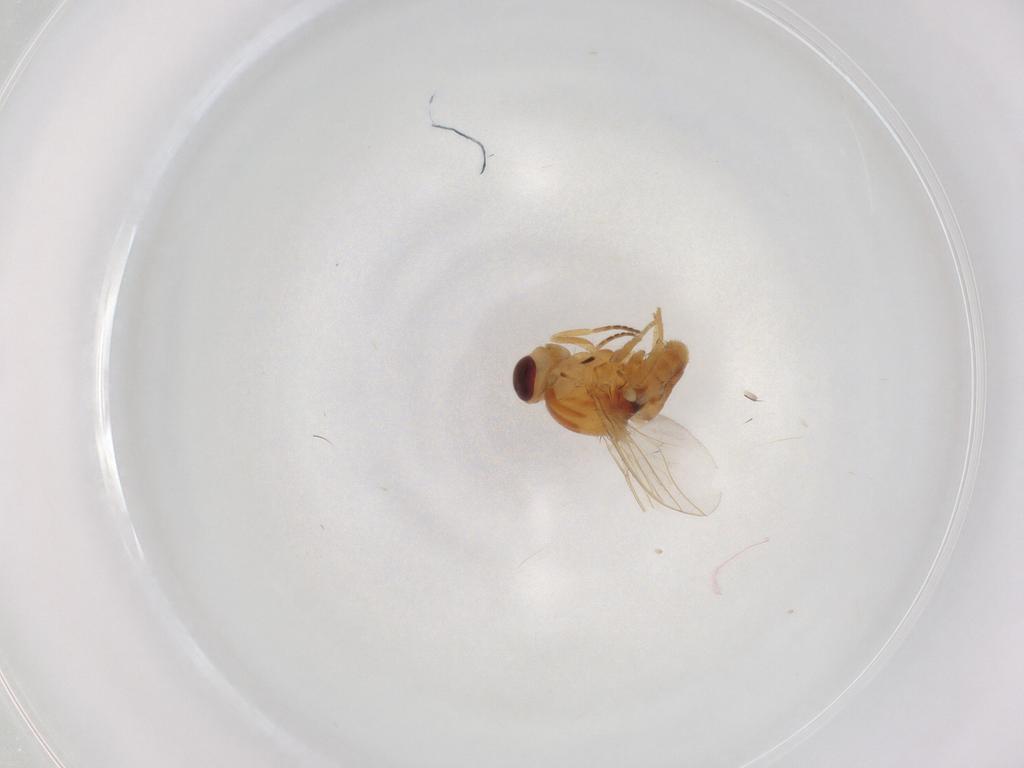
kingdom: Animalia
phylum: Arthropoda
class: Insecta
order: Diptera
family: Chloropidae
